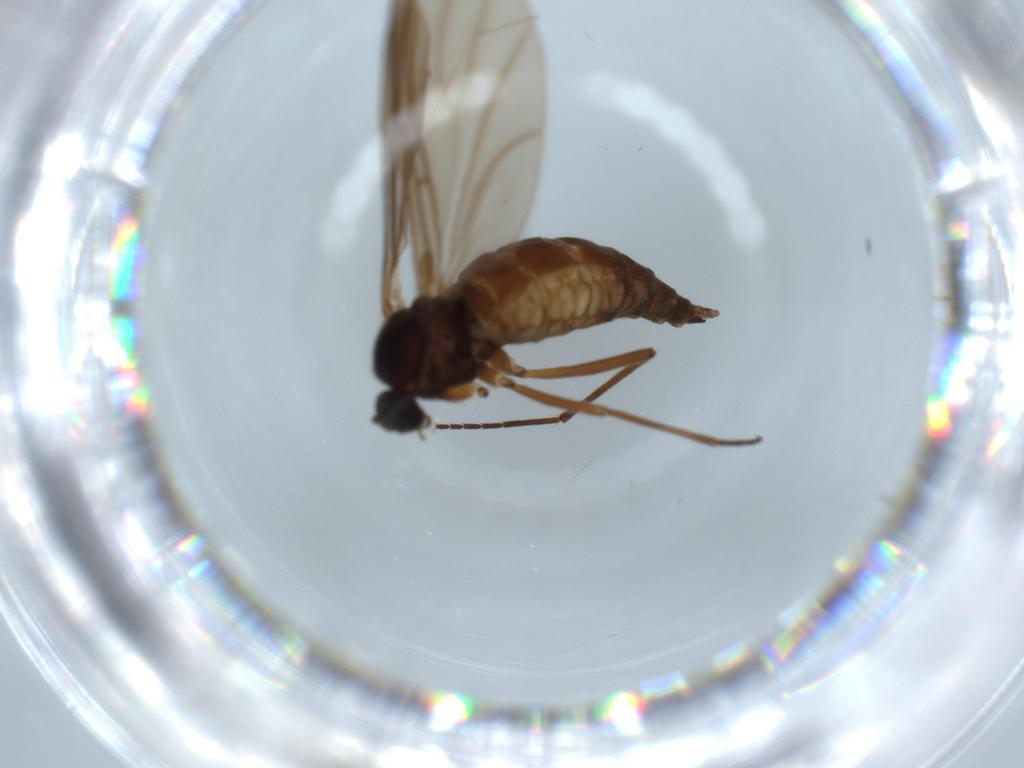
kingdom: Animalia
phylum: Arthropoda
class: Insecta
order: Diptera
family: Sciaridae
